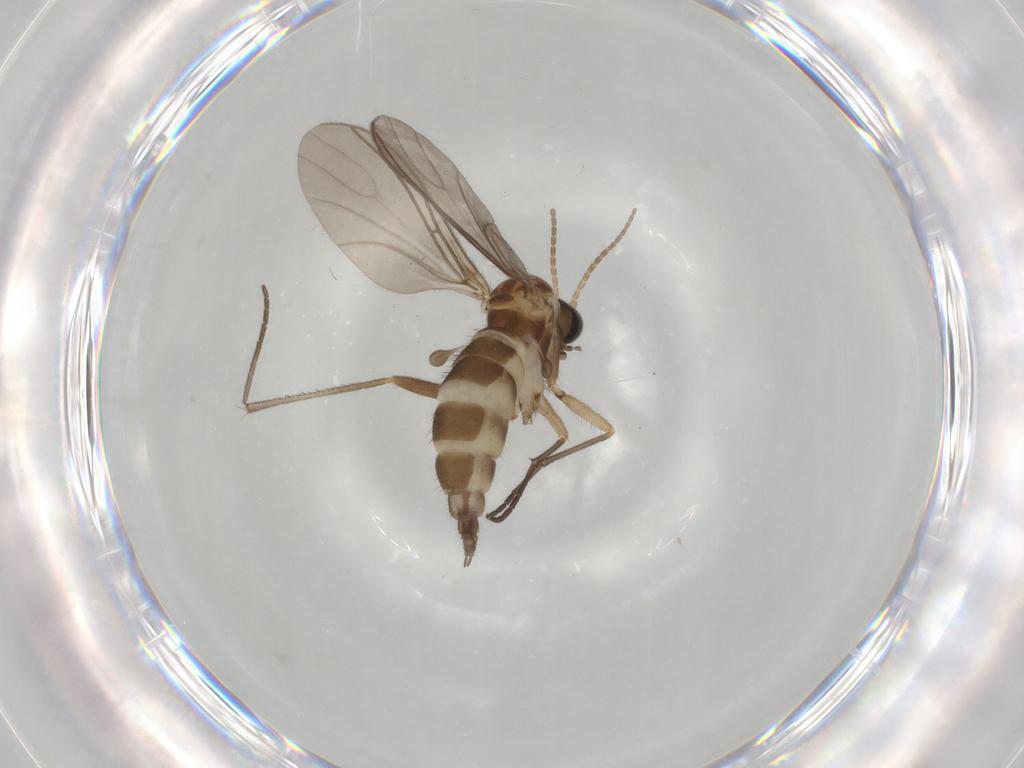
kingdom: Animalia
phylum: Arthropoda
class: Insecta
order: Diptera
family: Sciaridae
